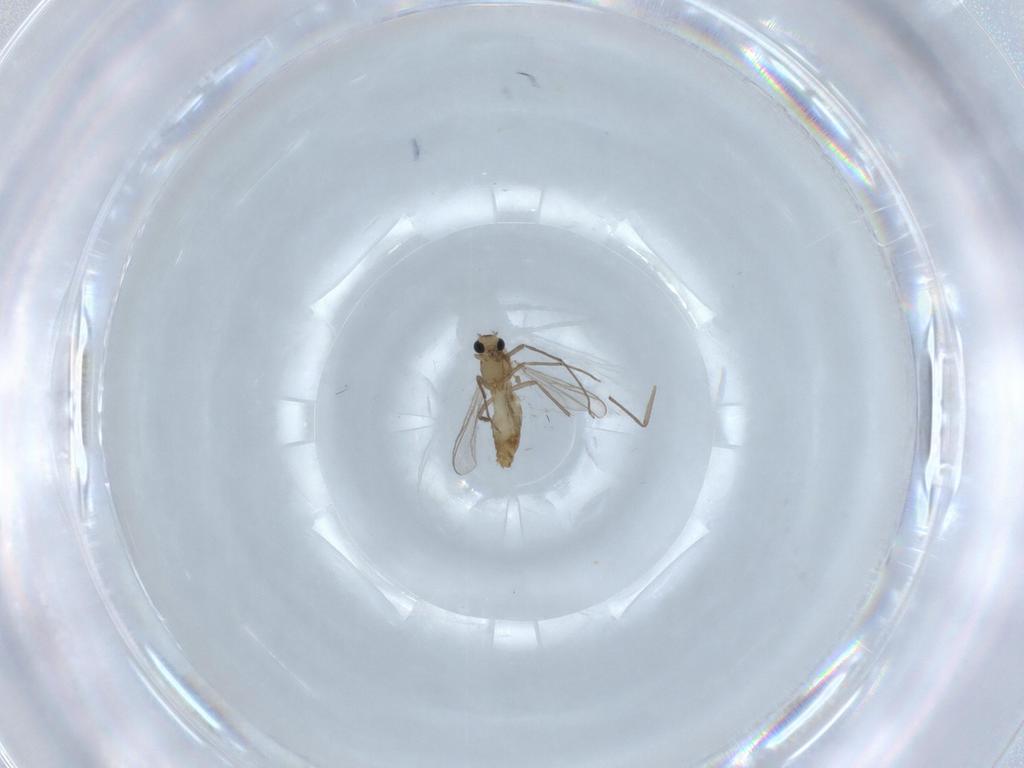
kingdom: Animalia
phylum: Arthropoda
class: Insecta
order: Diptera
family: Chironomidae
